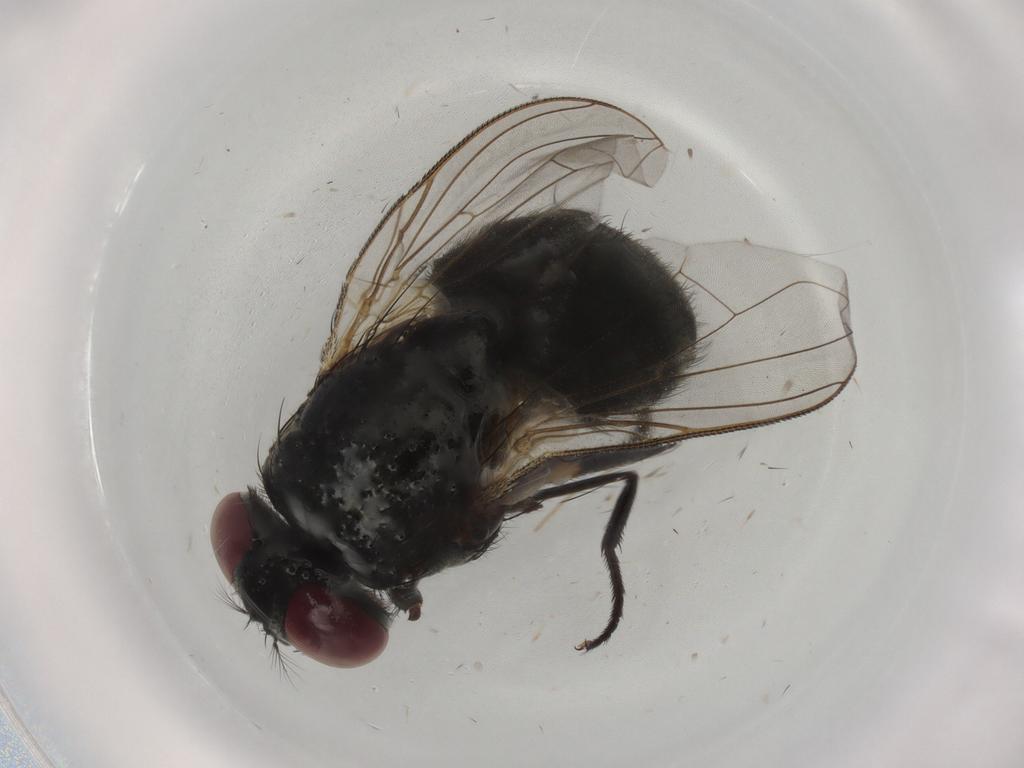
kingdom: Animalia
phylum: Arthropoda
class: Insecta
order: Diptera
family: Muscidae
